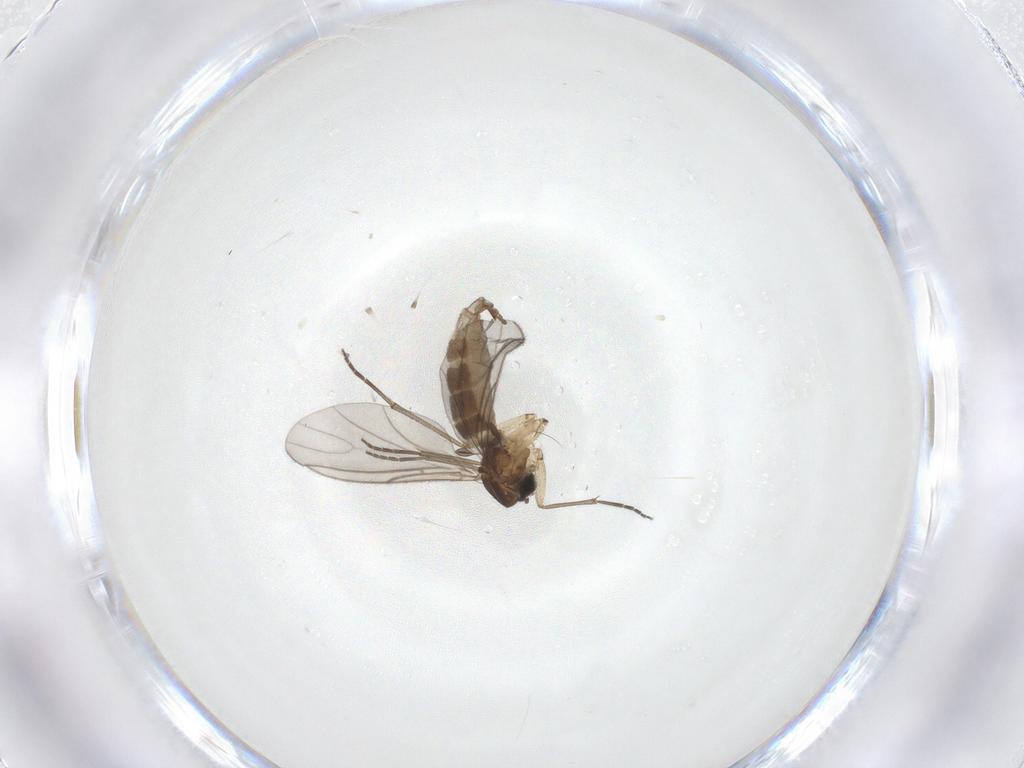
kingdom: Animalia
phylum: Arthropoda
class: Insecta
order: Diptera
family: Sciaridae
